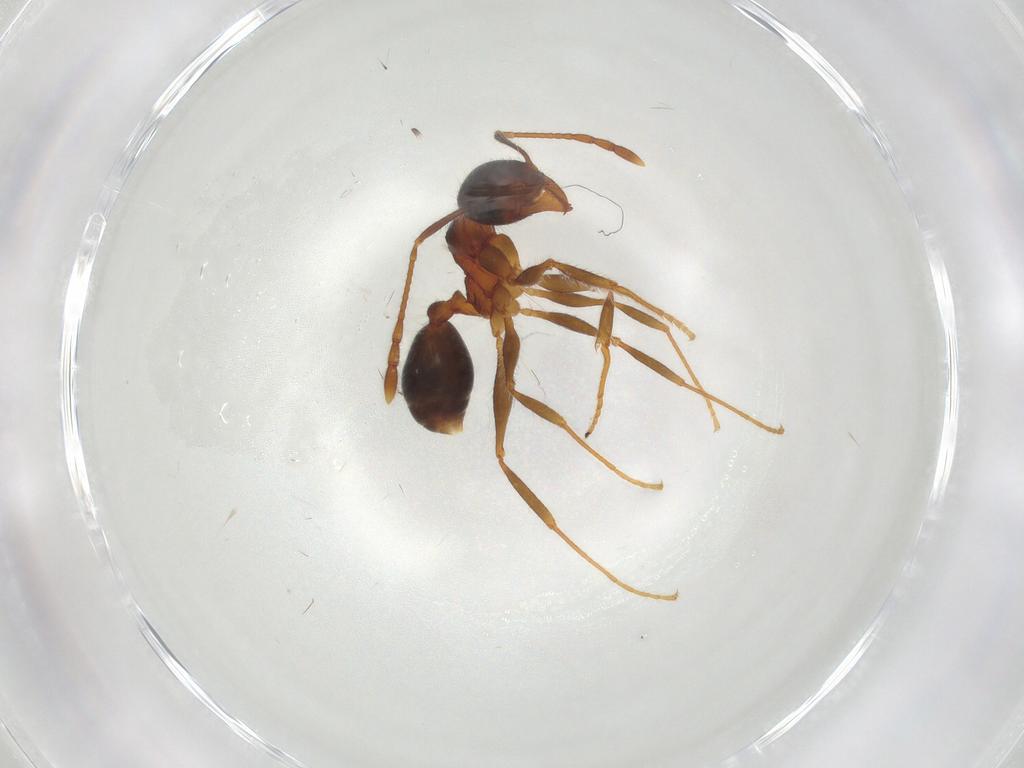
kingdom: Animalia
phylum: Arthropoda
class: Insecta
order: Hymenoptera
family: Formicidae
